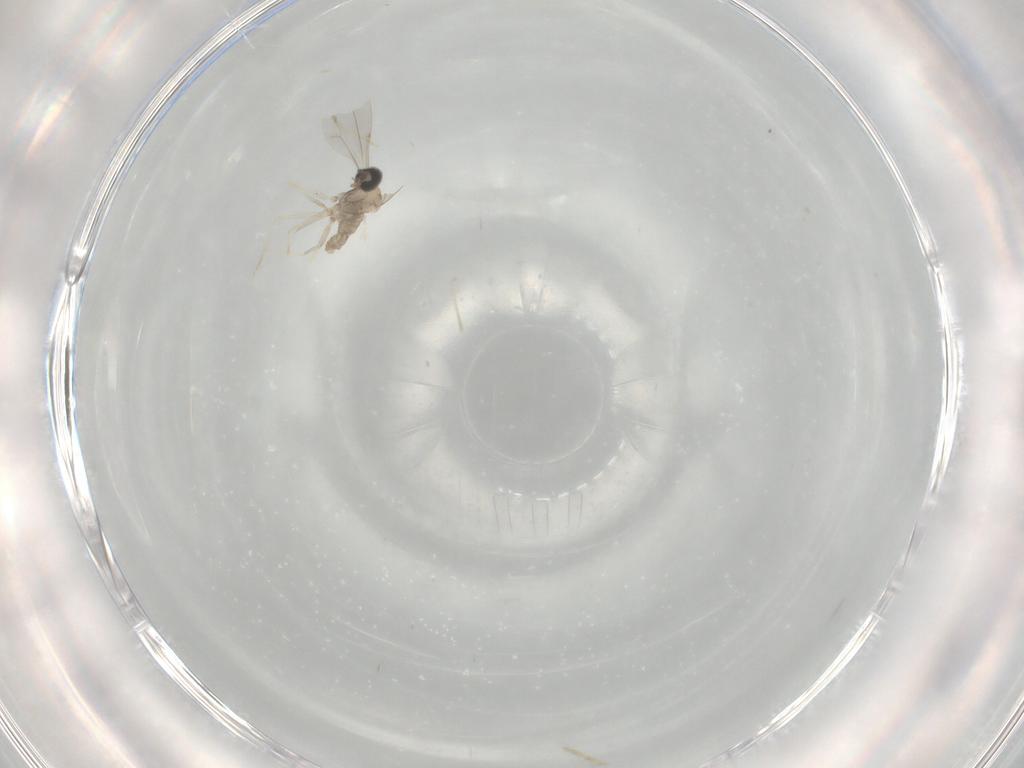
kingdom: Animalia
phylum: Arthropoda
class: Insecta
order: Diptera
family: Cecidomyiidae
